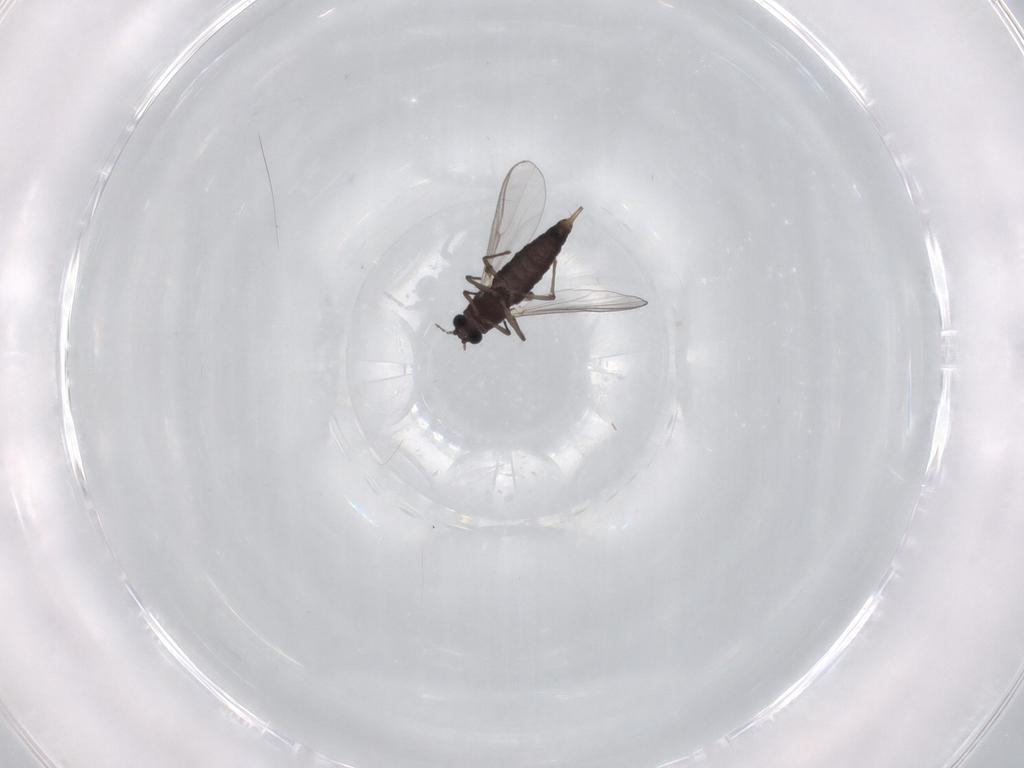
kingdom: Animalia
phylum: Arthropoda
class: Insecta
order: Diptera
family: Chironomidae
